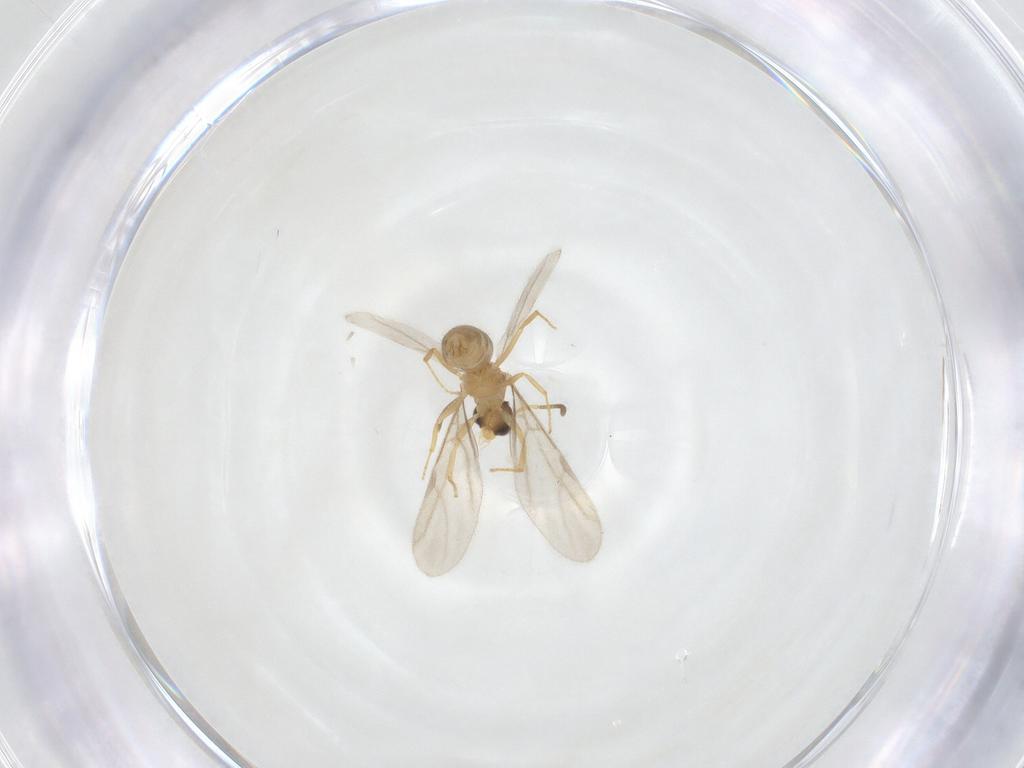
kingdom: Animalia
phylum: Arthropoda
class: Insecta
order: Hymenoptera
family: Formicidae
